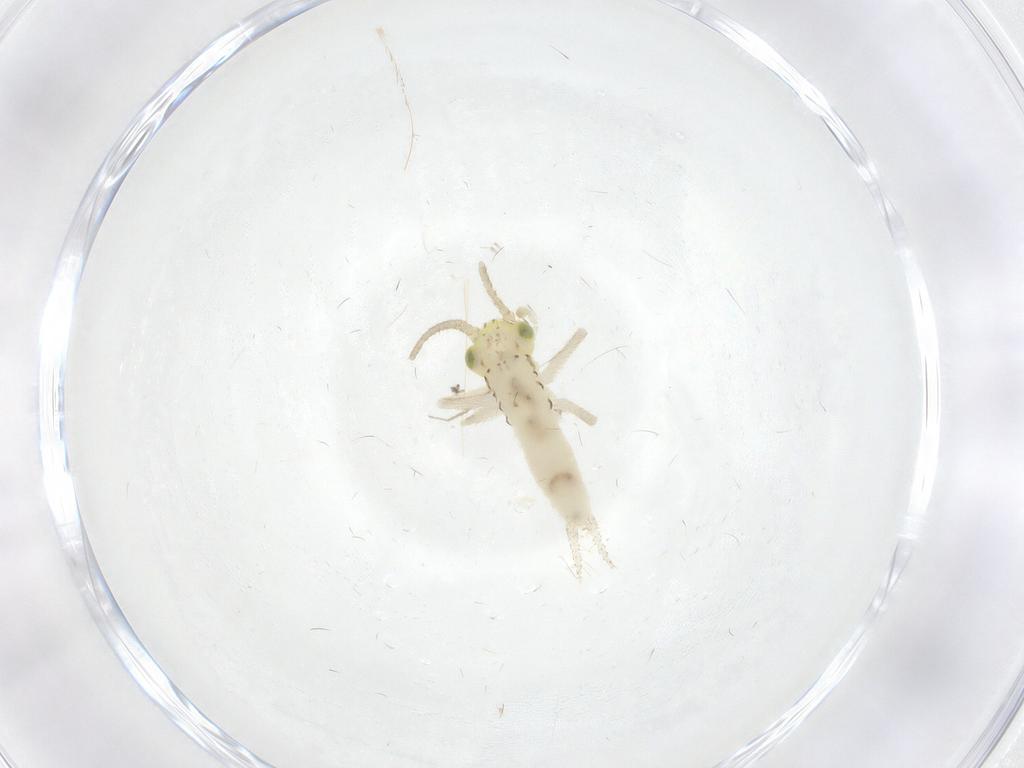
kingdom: Animalia
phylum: Arthropoda
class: Insecta
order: Orthoptera
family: Trigonidiidae
